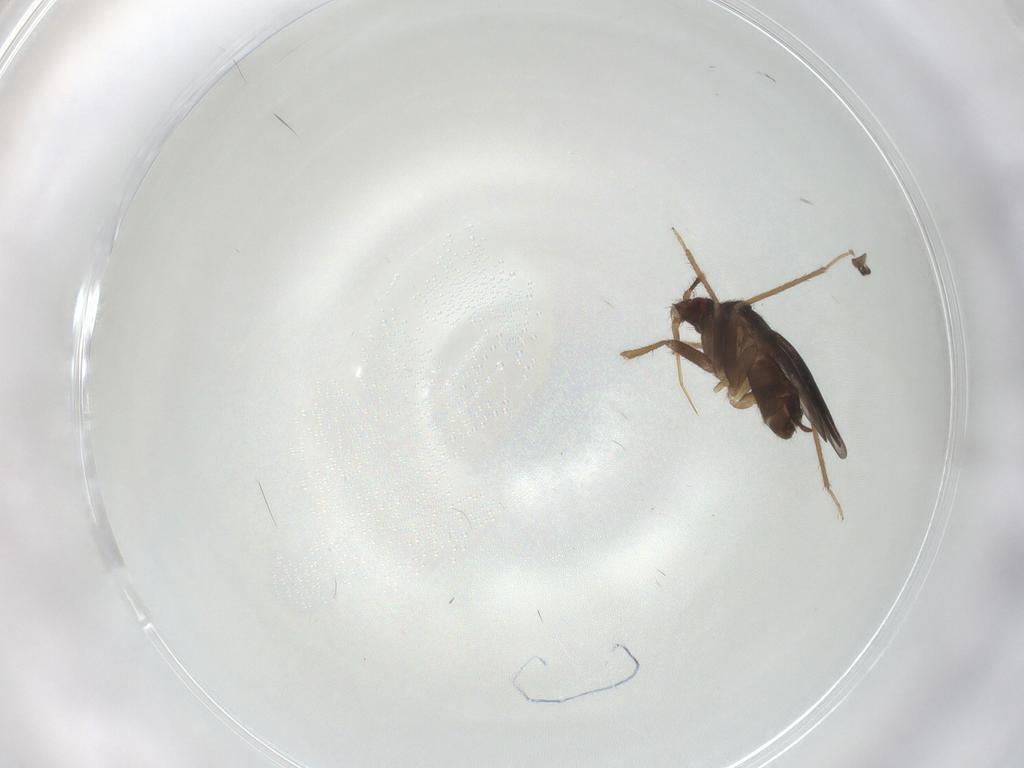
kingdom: Animalia
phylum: Arthropoda
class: Insecta
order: Hemiptera
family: Ceratocombidae
